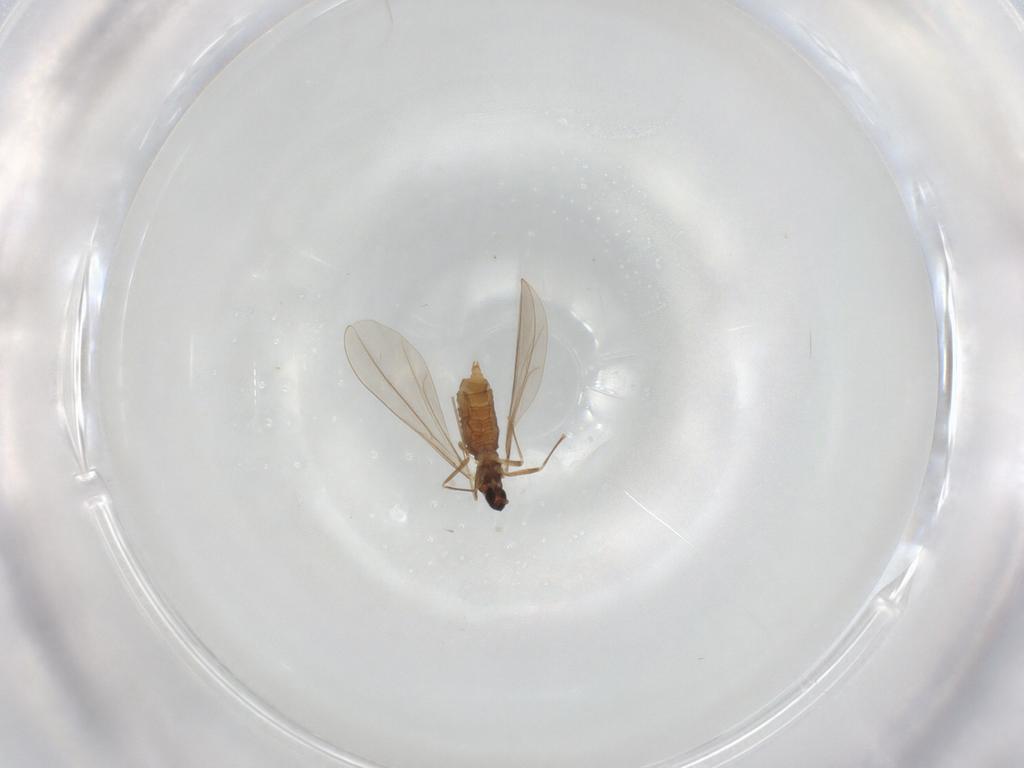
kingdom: Animalia
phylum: Arthropoda
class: Insecta
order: Diptera
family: Cecidomyiidae
